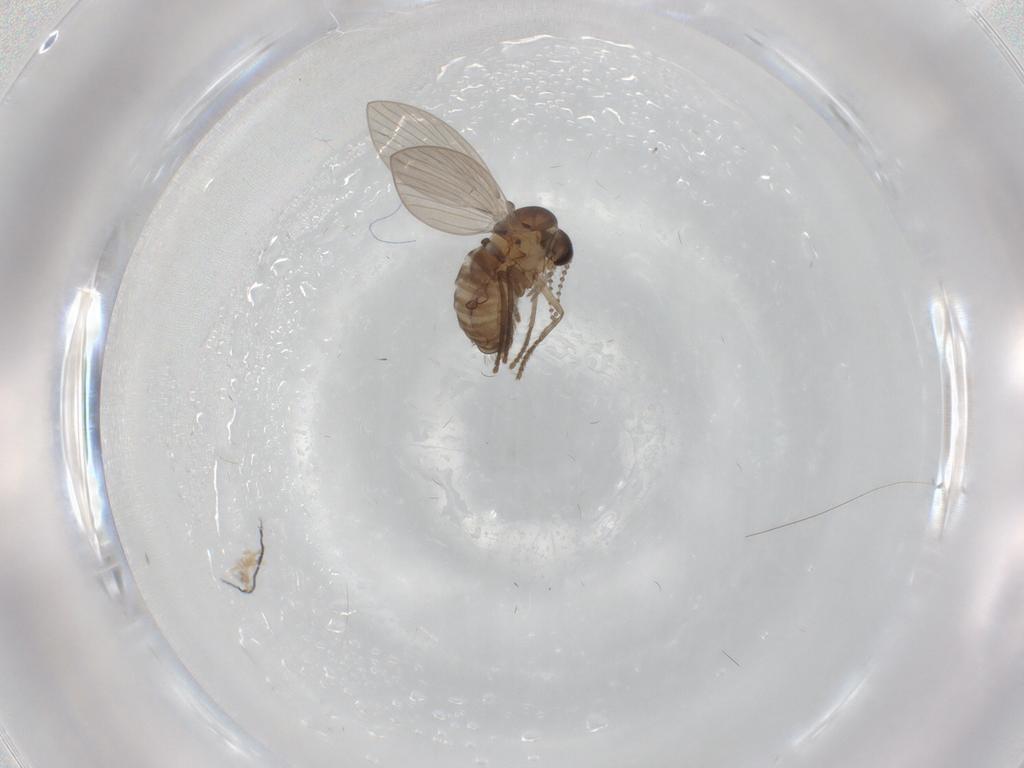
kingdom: Animalia
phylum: Arthropoda
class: Insecta
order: Diptera
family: Psychodidae
